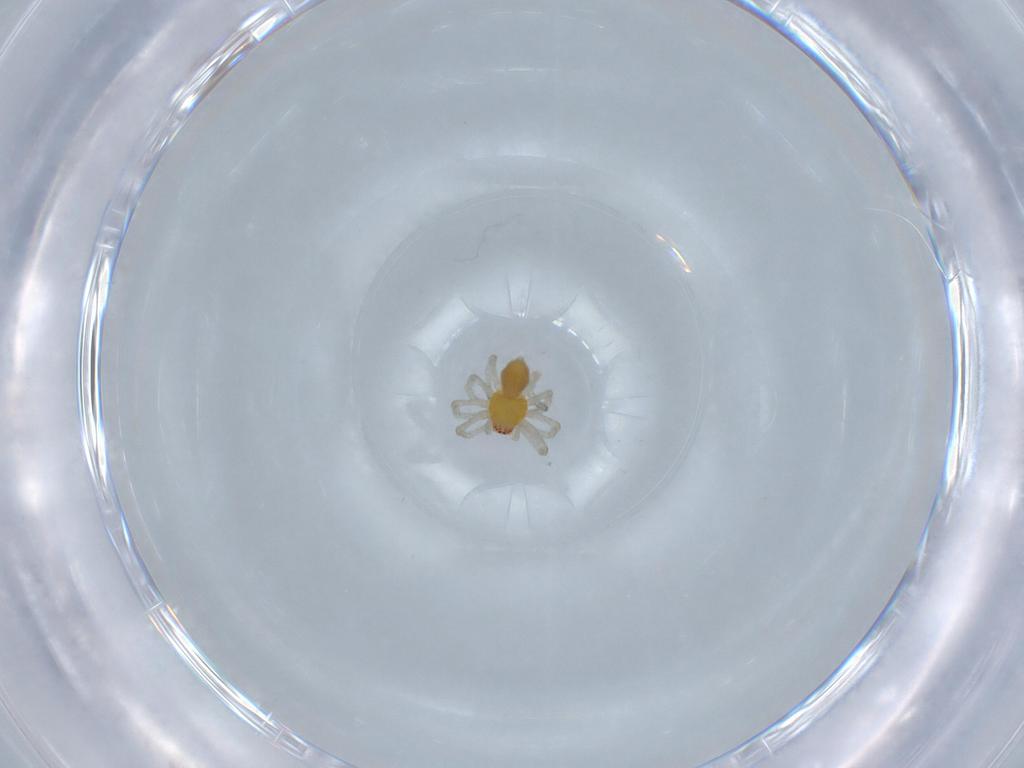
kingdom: Animalia
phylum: Arthropoda
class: Arachnida
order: Araneae
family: Dictynidae
